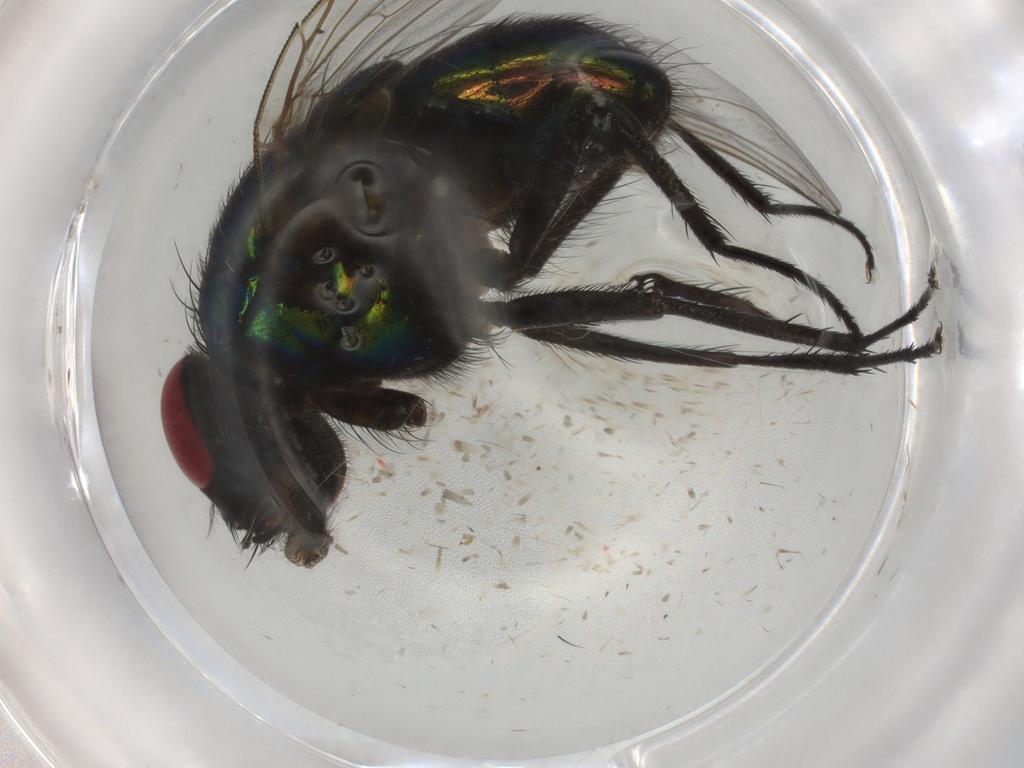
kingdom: Animalia
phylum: Arthropoda
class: Insecta
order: Diptera
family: Muscidae
